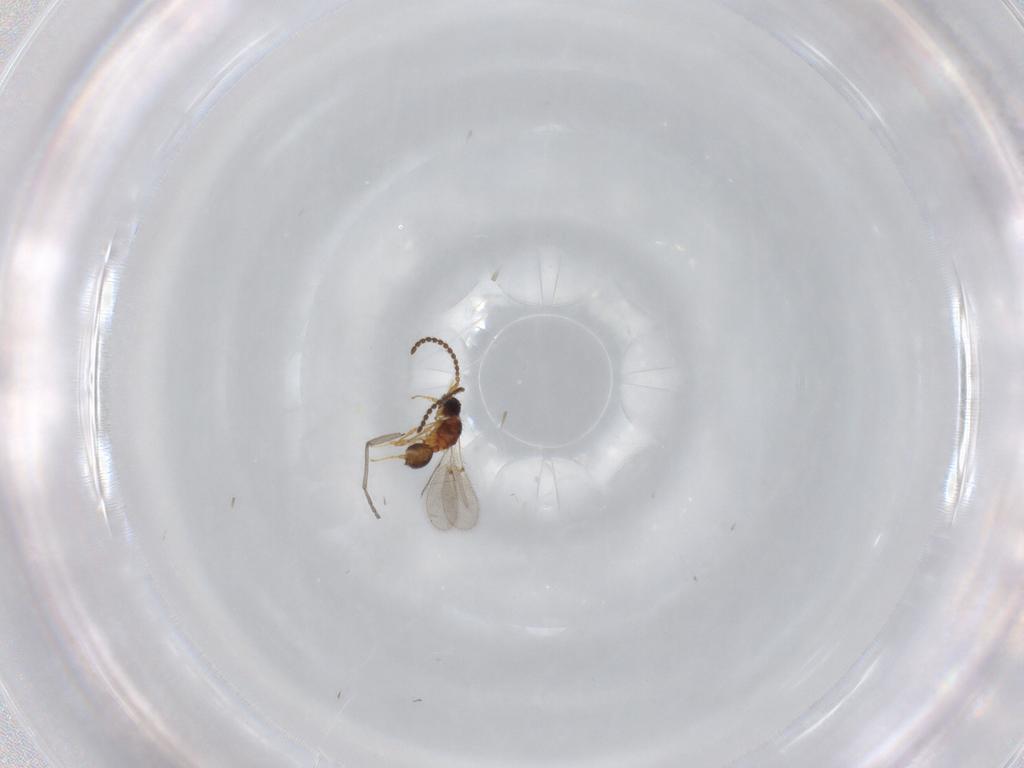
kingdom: Animalia
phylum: Arthropoda
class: Insecta
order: Hymenoptera
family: Diapriidae
